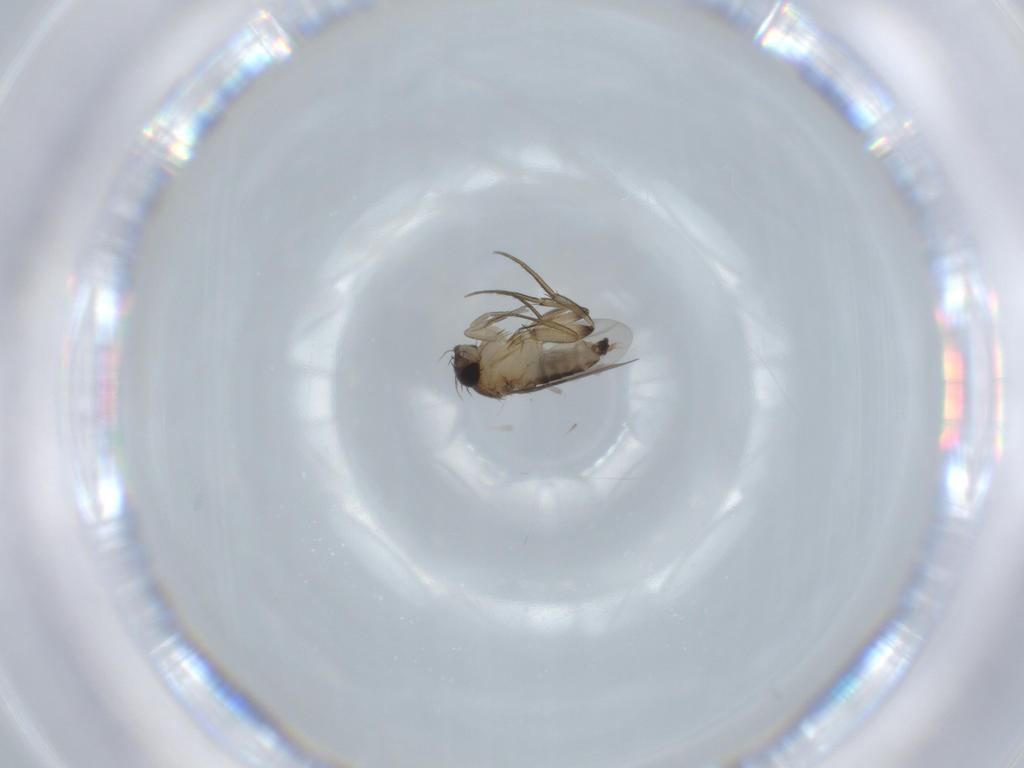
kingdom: Animalia
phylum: Arthropoda
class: Insecta
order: Diptera
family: Phoridae
